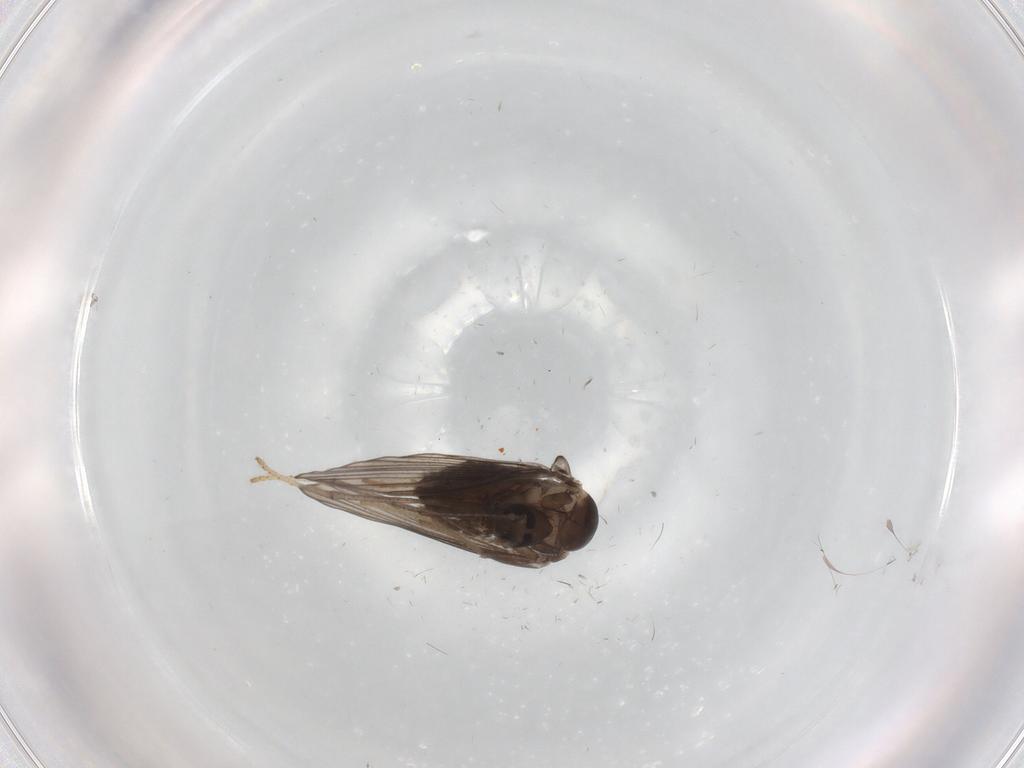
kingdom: Animalia
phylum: Arthropoda
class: Insecta
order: Diptera
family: Psychodidae
